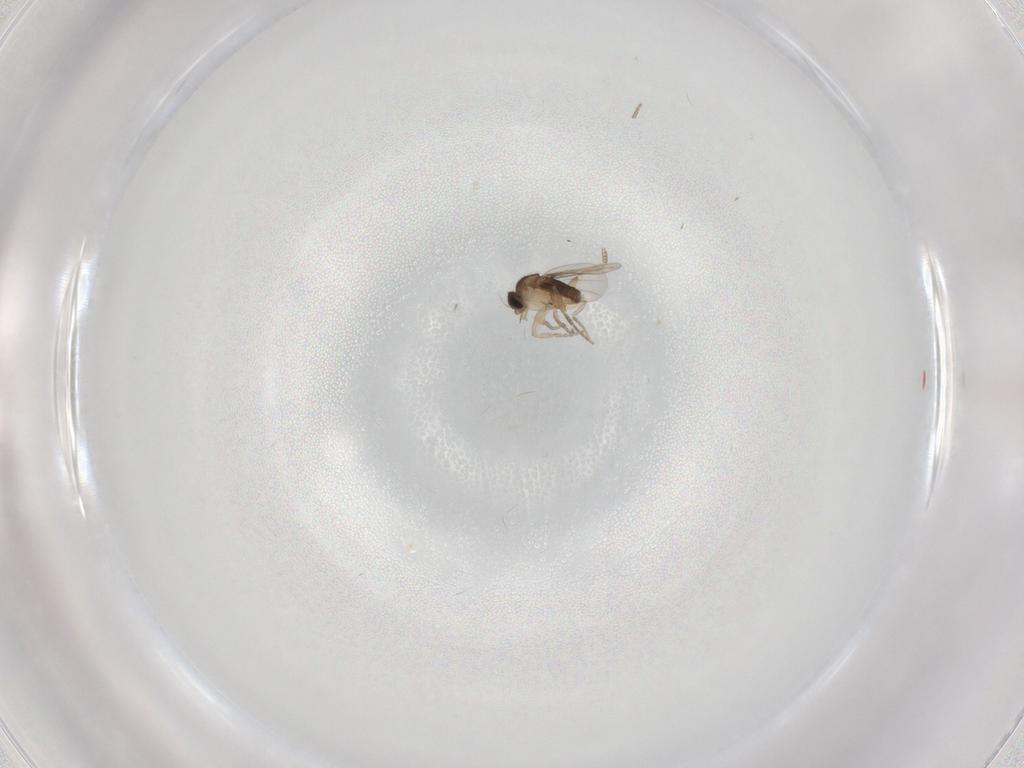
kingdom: Animalia
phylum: Arthropoda
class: Insecta
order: Diptera
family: Phoridae
